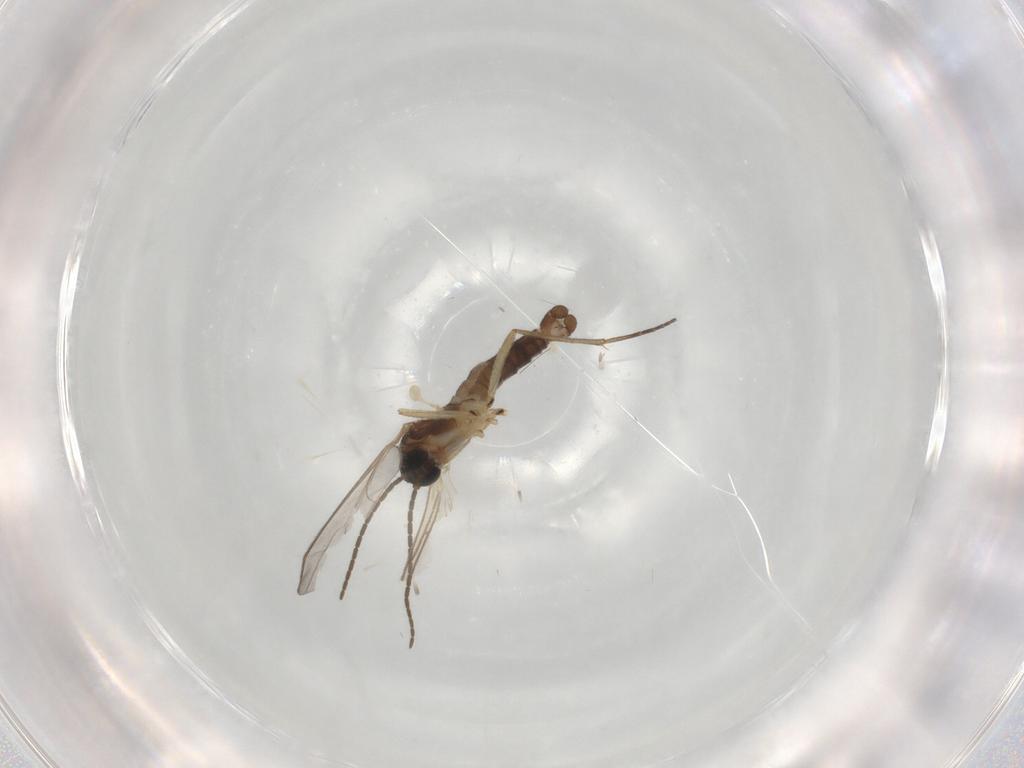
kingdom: Animalia
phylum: Arthropoda
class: Insecta
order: Diptera
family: Sciaridae
